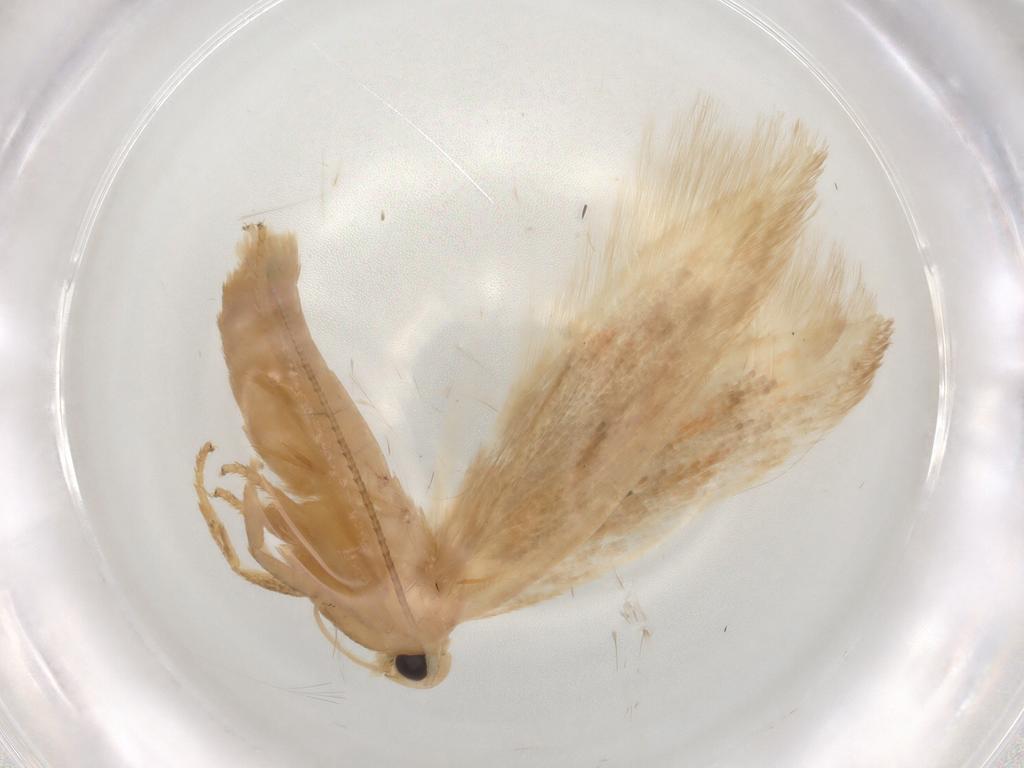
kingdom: Animalia
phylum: Arthropoda
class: Insecta
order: Lepidoptera
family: Geometridae
